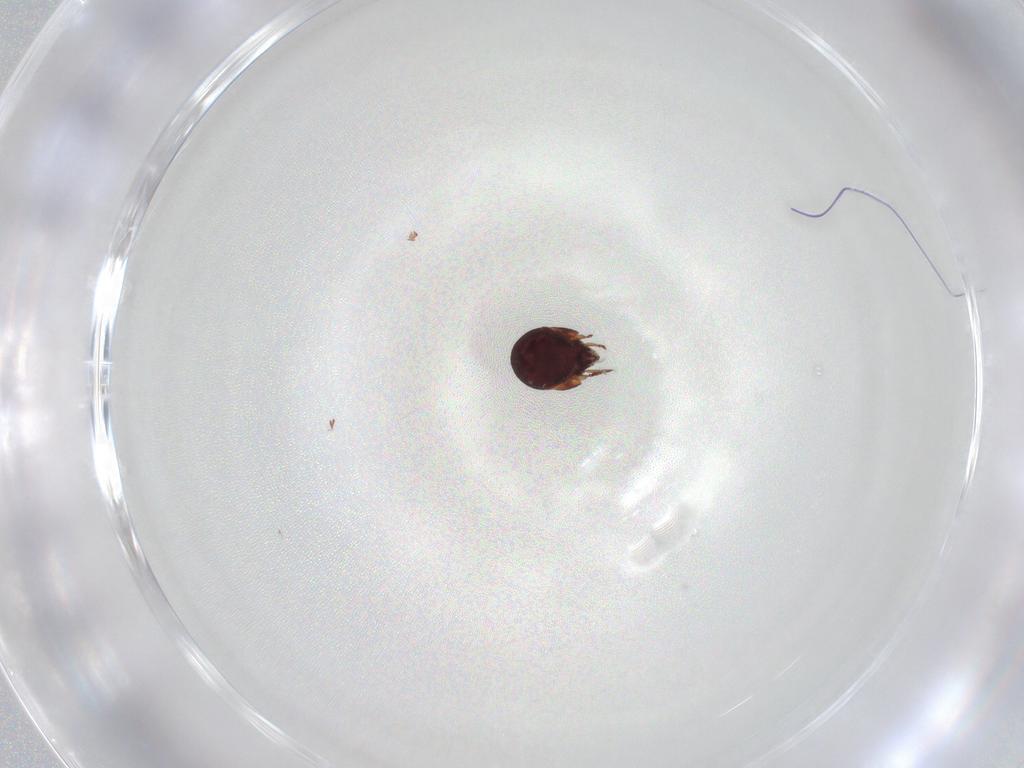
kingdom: Animalia
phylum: Arthropoda
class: Arachnida
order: Sarcoptiformes
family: Humerobatidae
